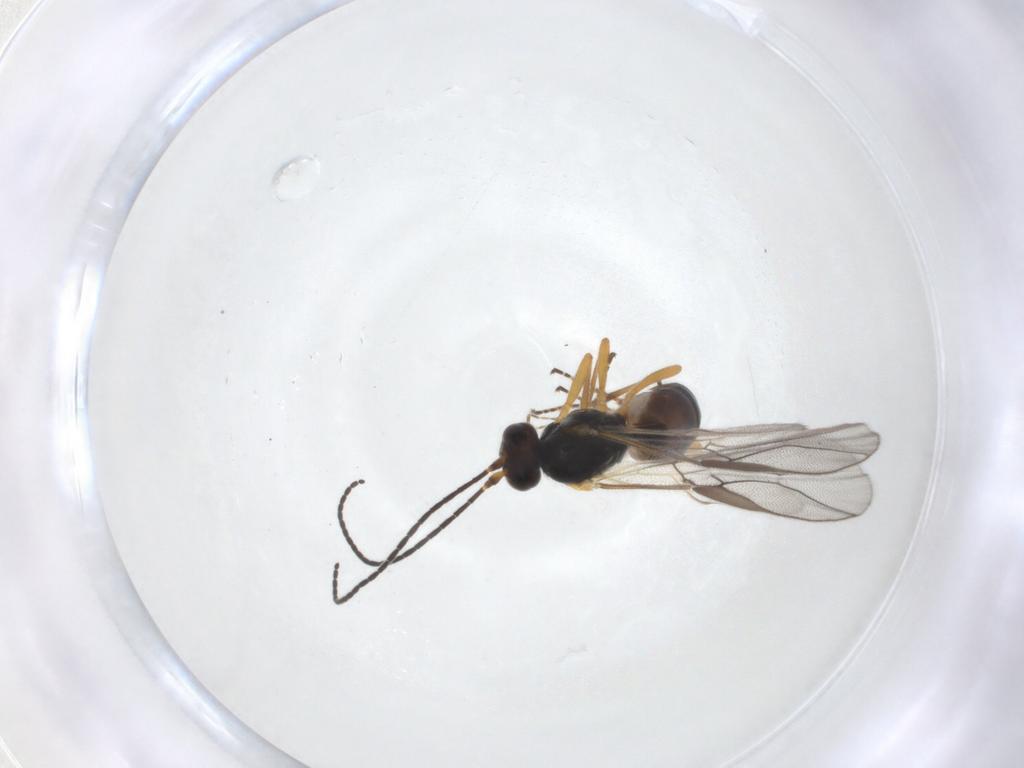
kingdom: Animalia
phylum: Arthropoda
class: Insecta
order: Hymenoptera
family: Braconidae
